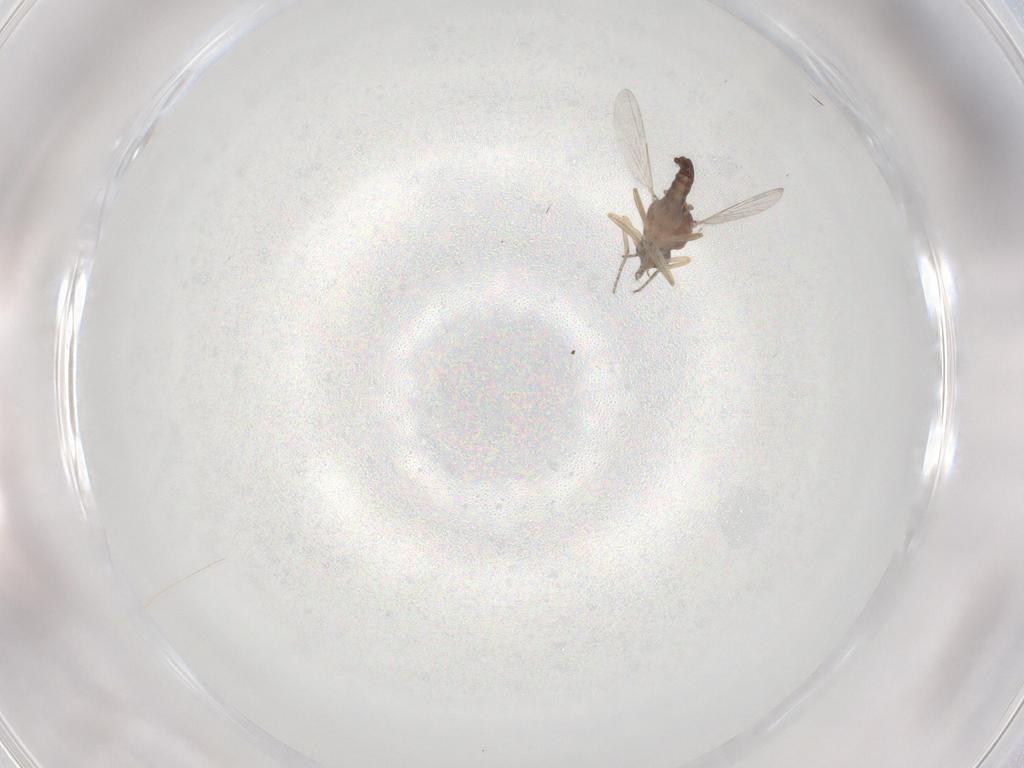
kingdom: Animalia
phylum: Arthropoda
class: Insecta
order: Diptera
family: Ceratopogonidae
